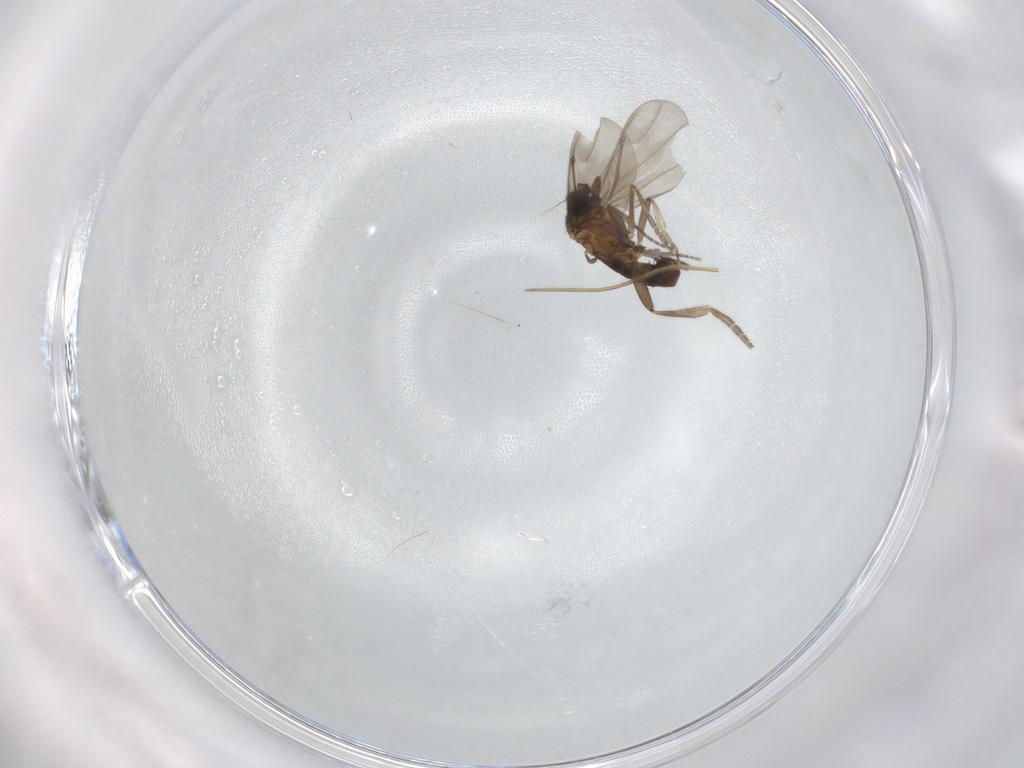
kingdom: Animalia
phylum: Arthropoda
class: Insecta
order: Diptera
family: Phoridae
